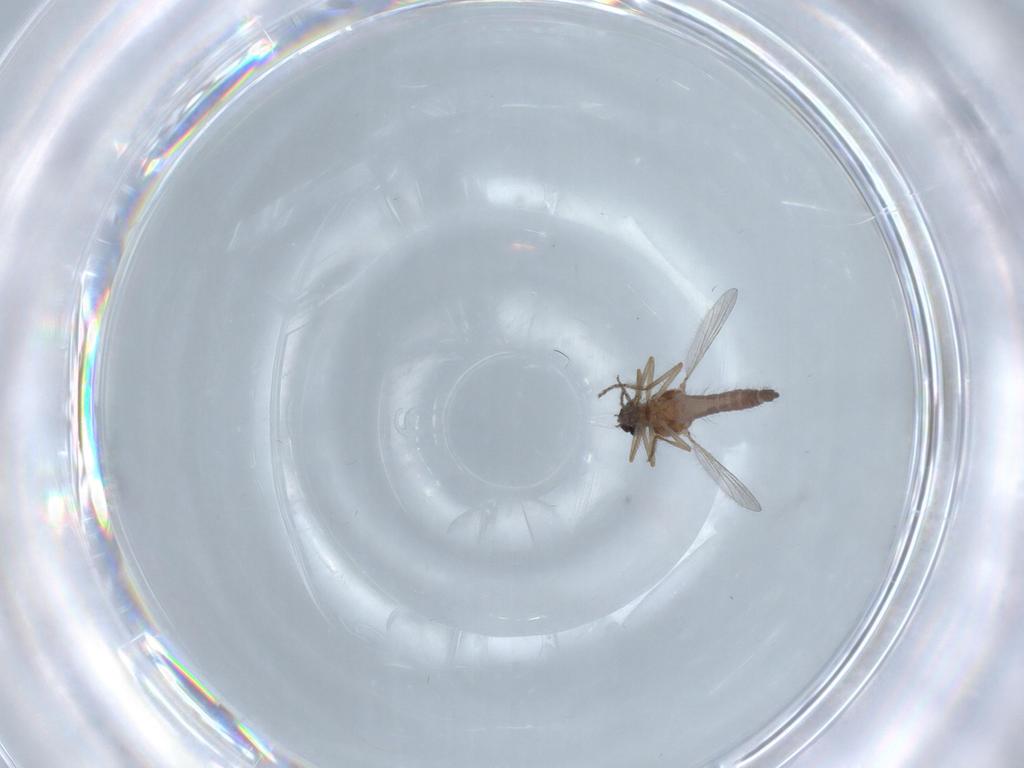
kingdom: Animalia
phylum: Arthropoda
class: Insecta
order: Diptera
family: Ceratopogonidae
